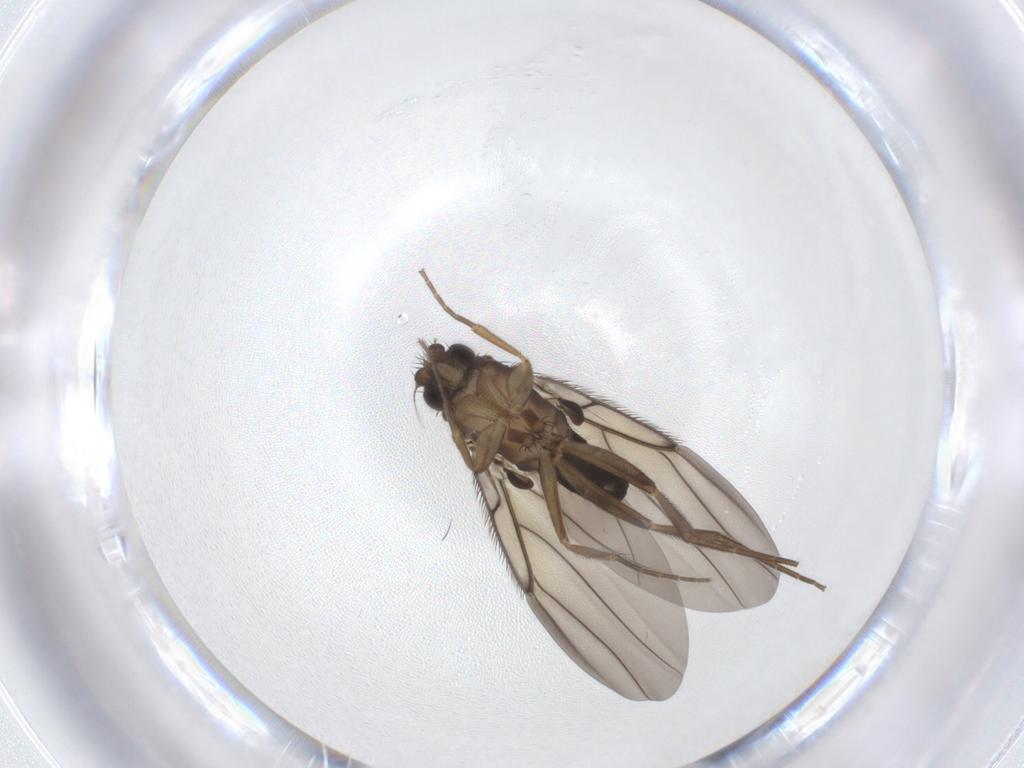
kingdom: Animalia
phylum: Arthropoda
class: Insecta
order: Diptera
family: Phoridae
